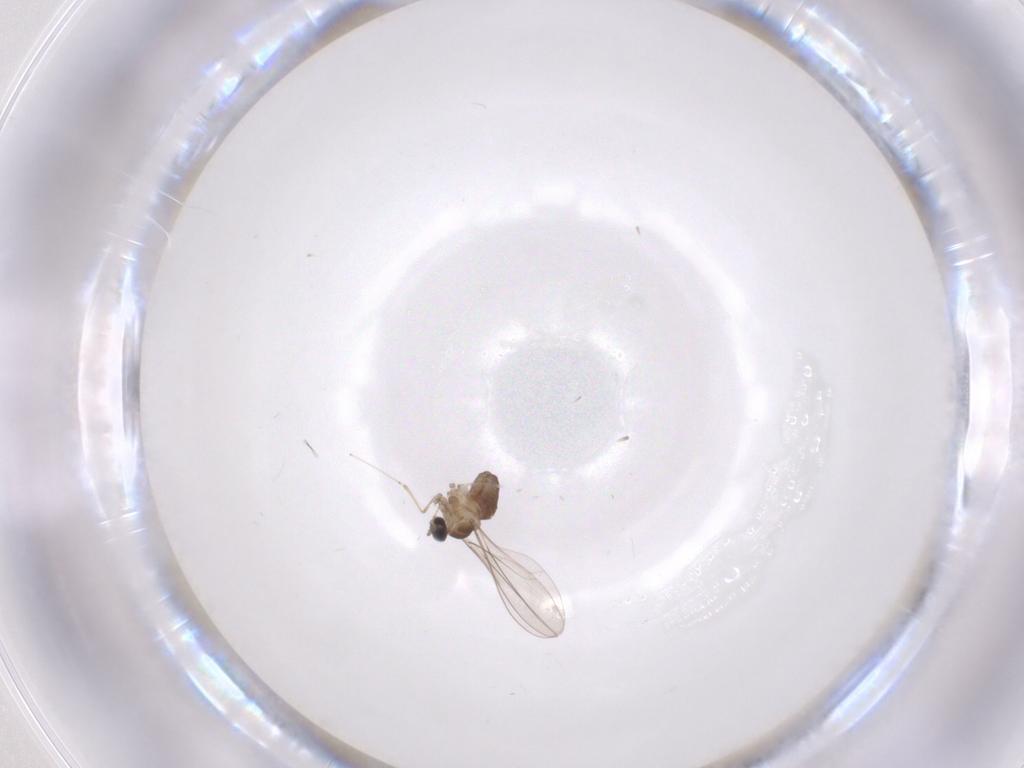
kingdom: Animalia
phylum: Arthropoda
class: Insecta
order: Diptera
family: Cecidomyiidae
